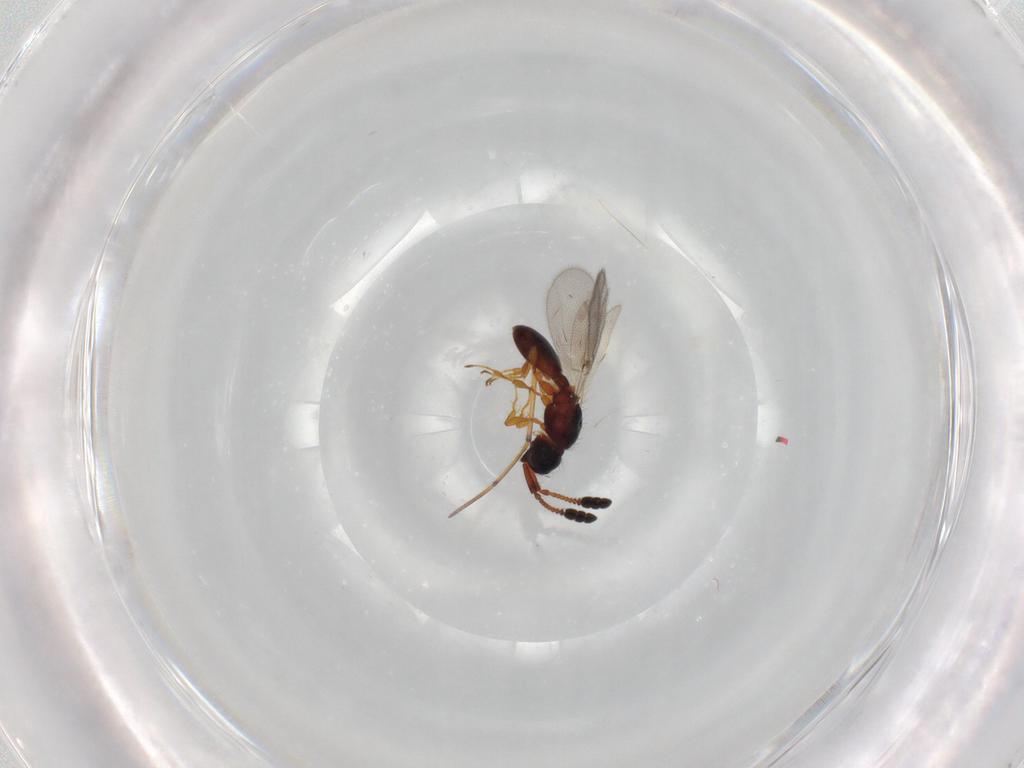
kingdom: Animalia
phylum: Arthropoda
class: Insecta
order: Hymenoptera
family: Diapriidae
